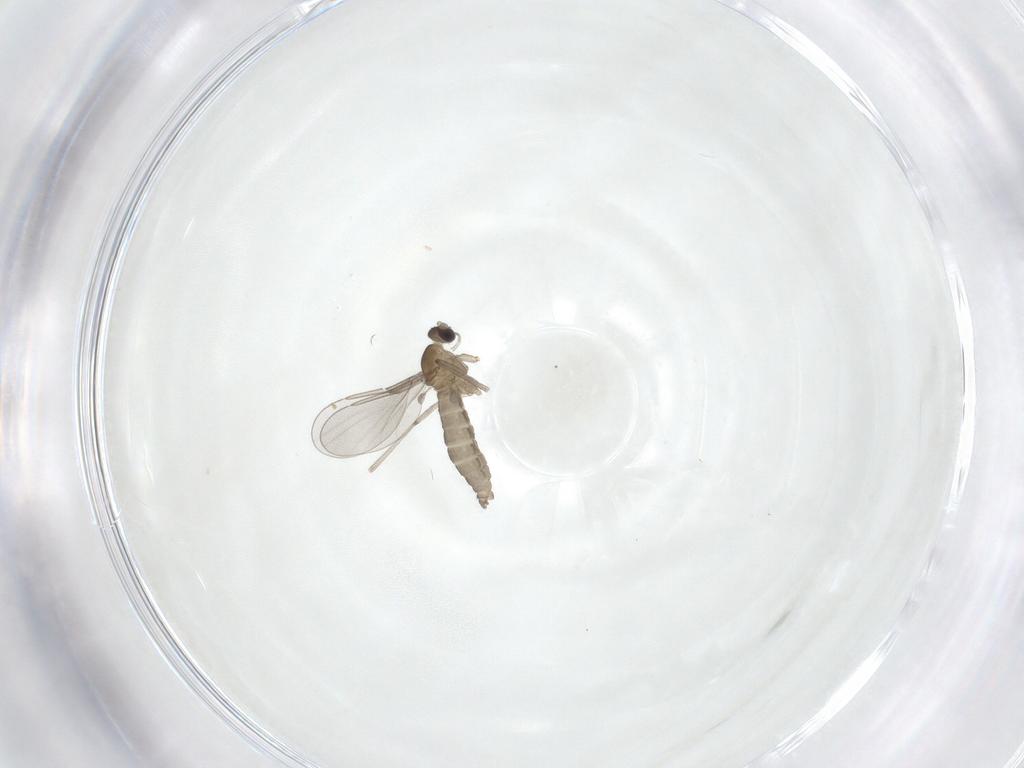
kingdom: Animalia
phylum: Arthropoda
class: Insecta
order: Diptera
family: Cecidomyiidae
